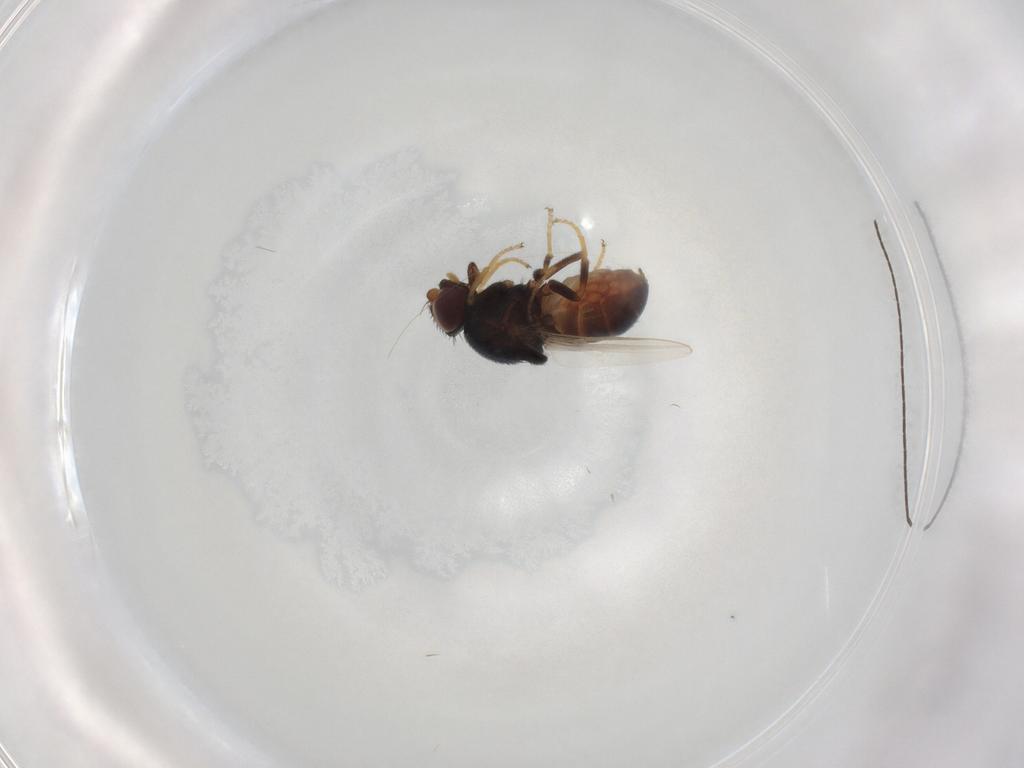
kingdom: Animalia
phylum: Arthropoda
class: Insecta
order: Diptera
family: Chloropidae
